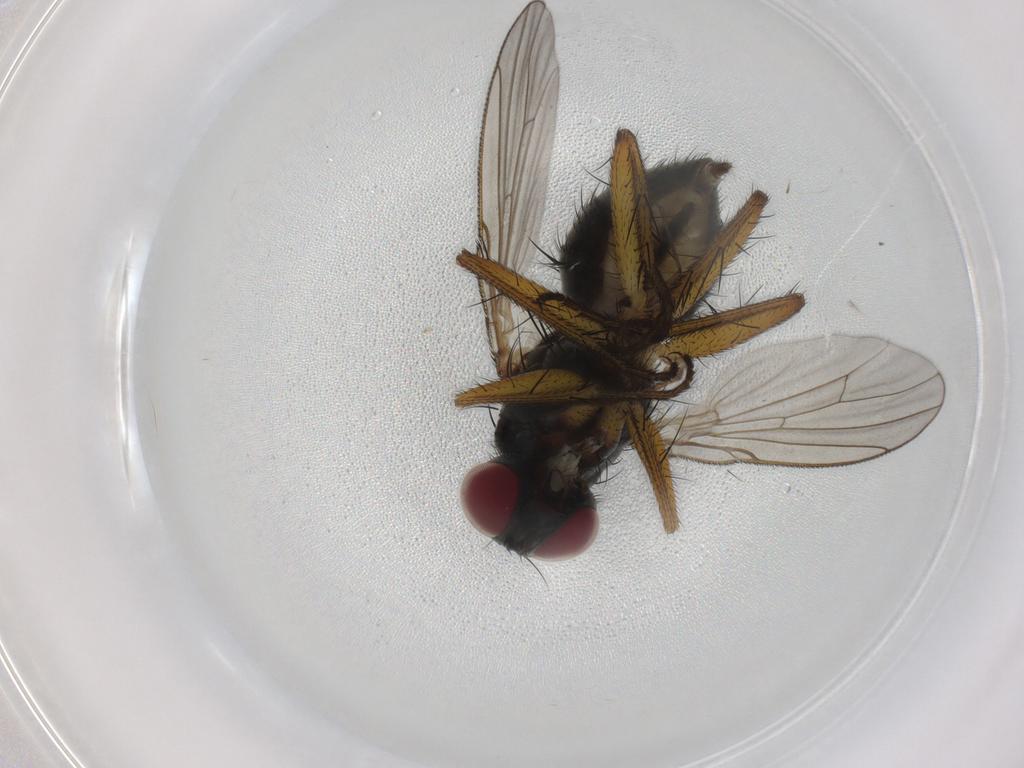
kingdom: Animalia
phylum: Arthropoda
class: Insecta
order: Diptera
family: Muscidae
